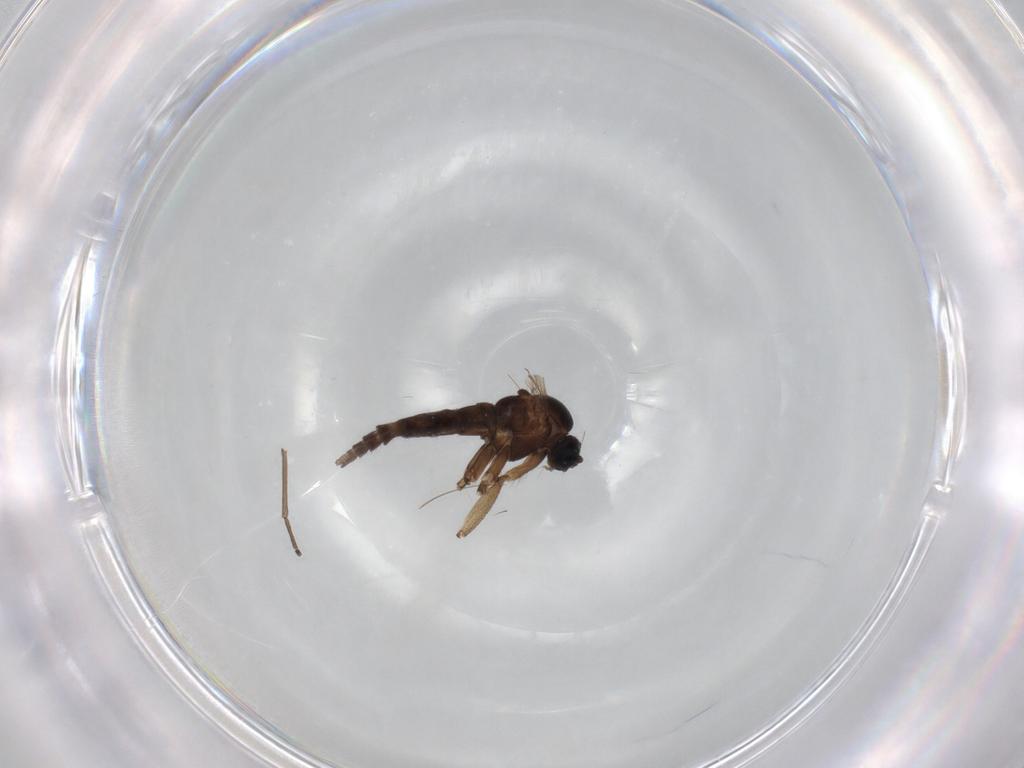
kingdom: Animalia
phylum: Arthropoda
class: Insecta
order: Diptera
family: Sciaridae
